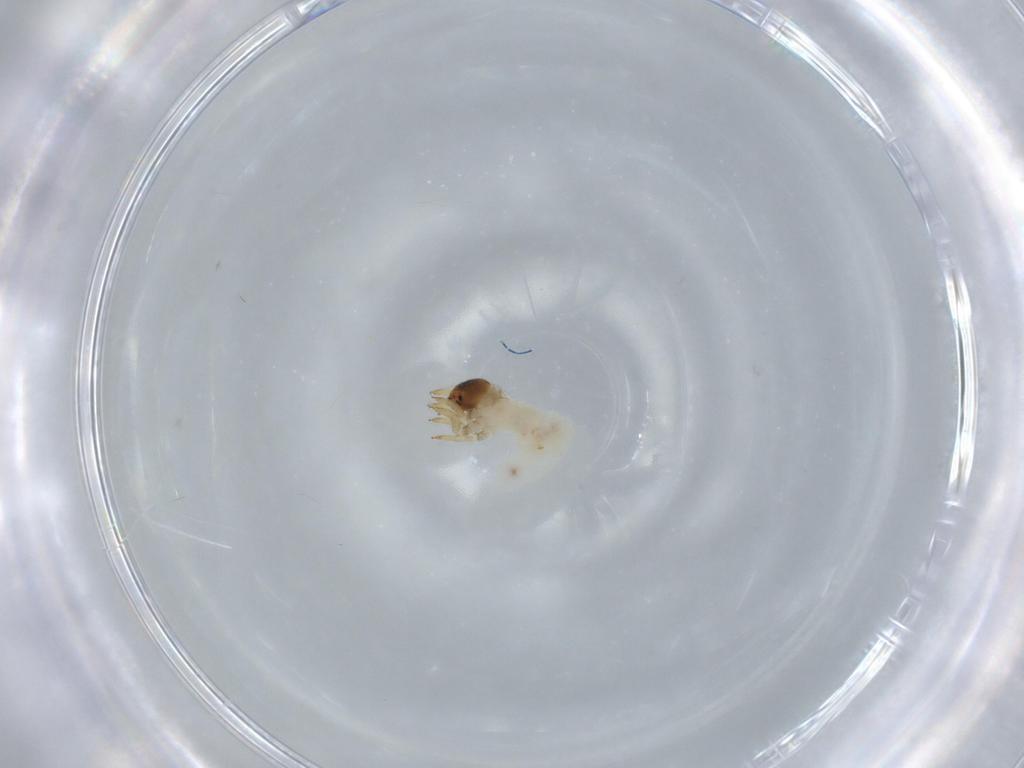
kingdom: Animalia
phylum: Arthropoda
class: Insecta
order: Coleoptera
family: Chrysomelidae
